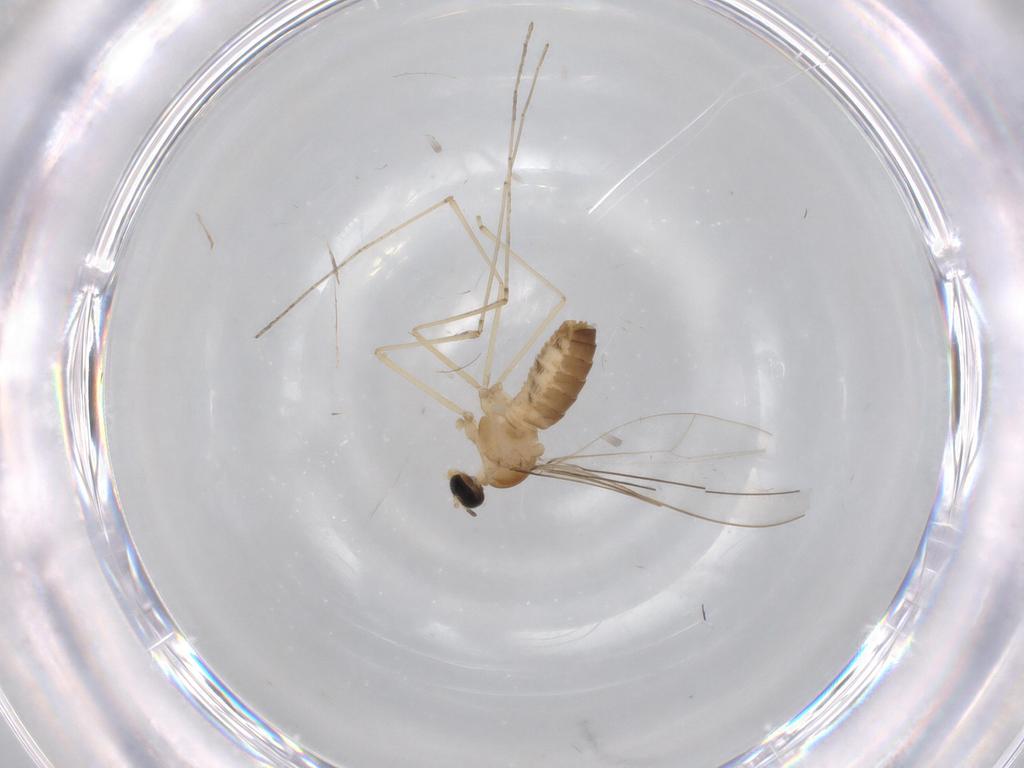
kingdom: Animalia
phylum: Arthropoda
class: Insecta
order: Diptera
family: Cecidomyiidae
